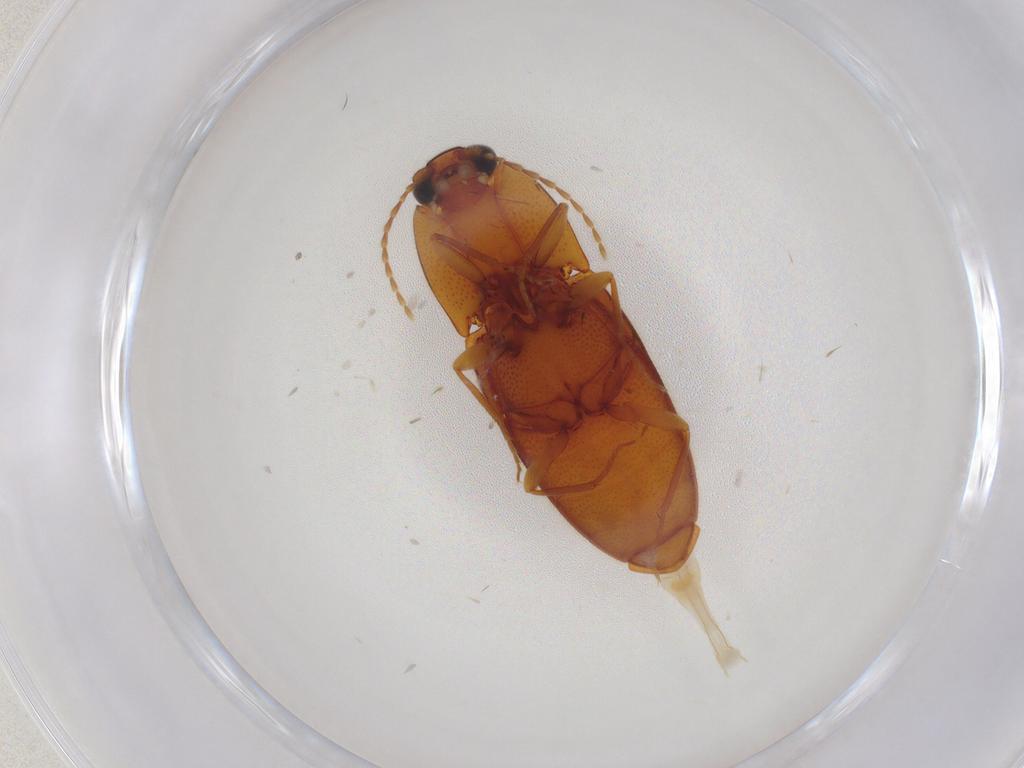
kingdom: Animalia
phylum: Arthropoda
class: Insecta
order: Coleoptera
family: Elateridae
